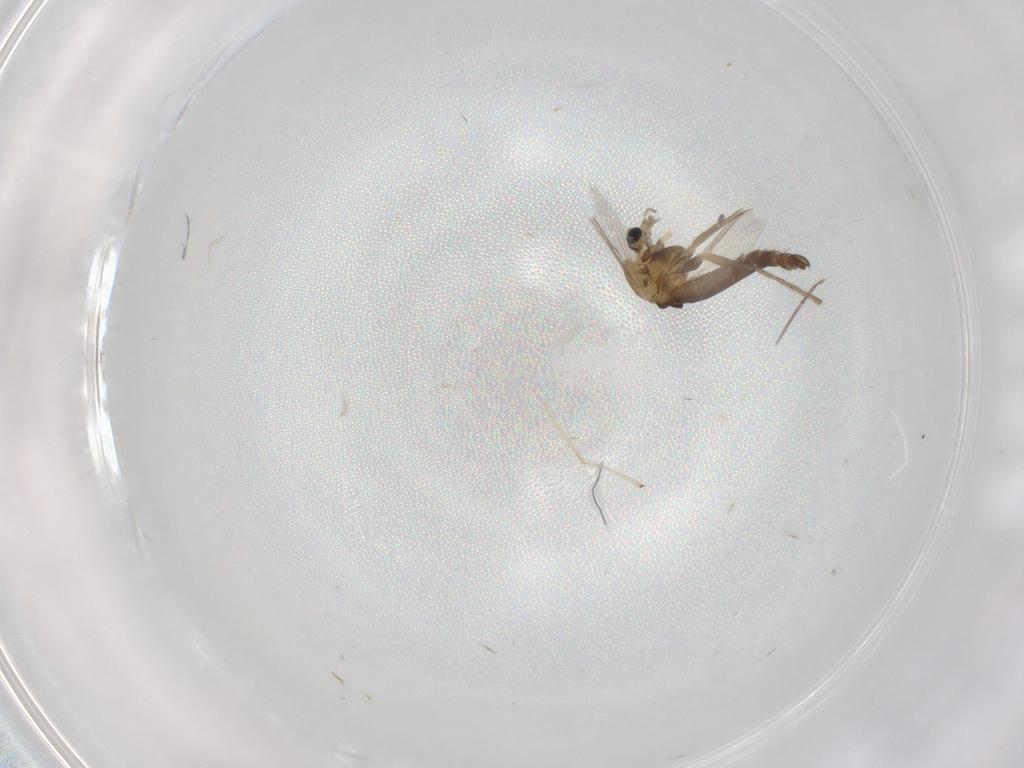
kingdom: Animalia
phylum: Arthropoda
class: Insecta
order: Diptera
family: Chironomidae
